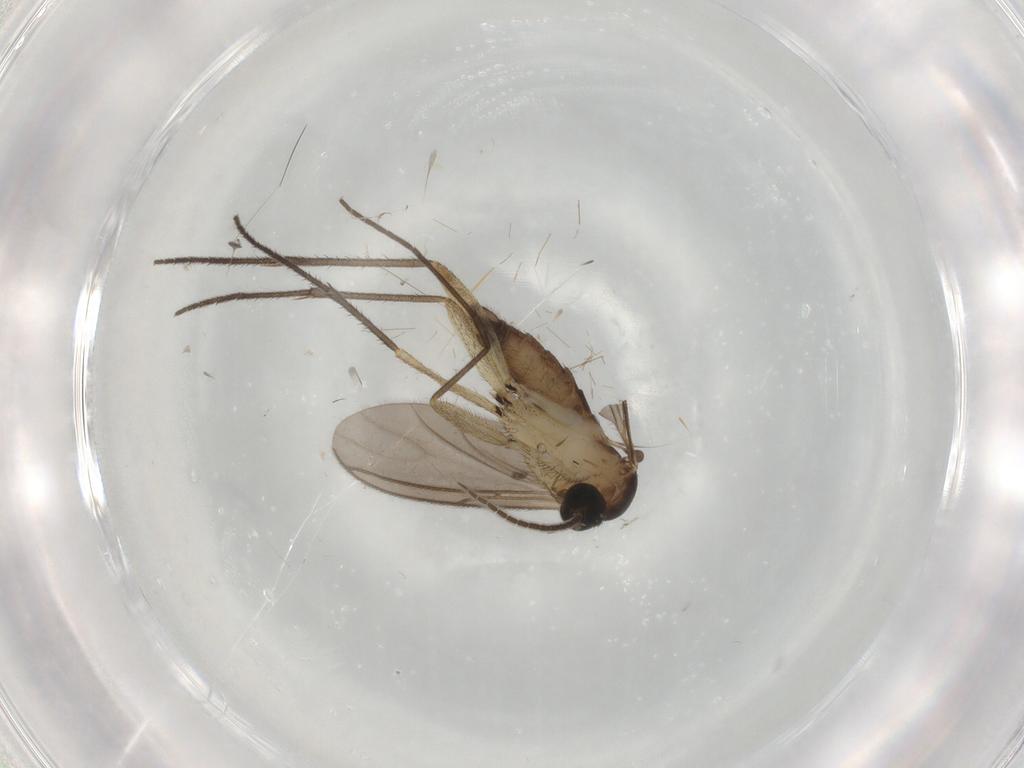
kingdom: Animalia
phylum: Arthropoda
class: Insecta
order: Diptera
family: Sciaridae
